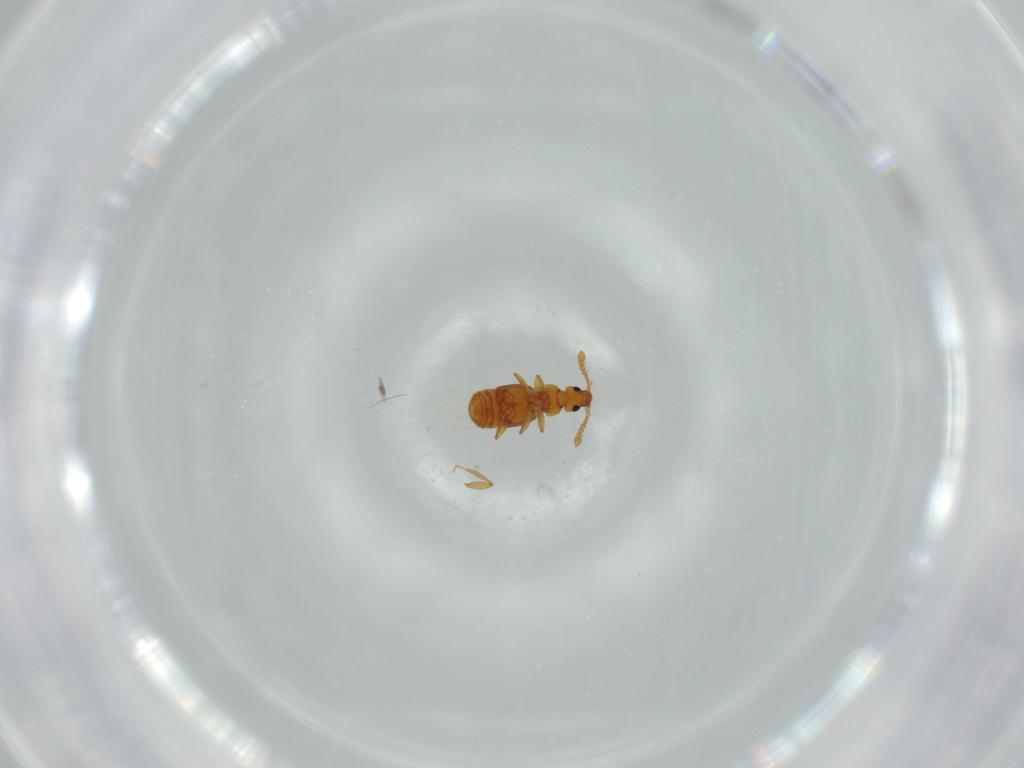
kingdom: Animalia
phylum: Arthropoda
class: Insecta
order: Coleoptera
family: Staphylinidae
